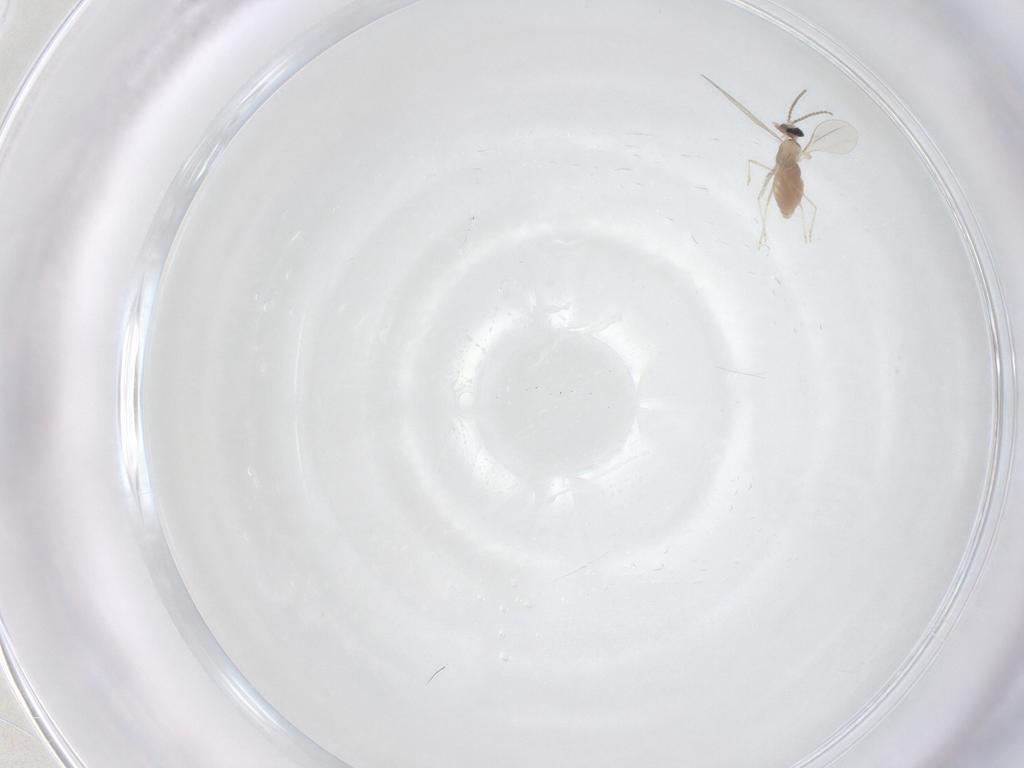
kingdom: Animalia
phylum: Arthropoda
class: Insecta
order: Diptera
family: Cecidomyiidae
